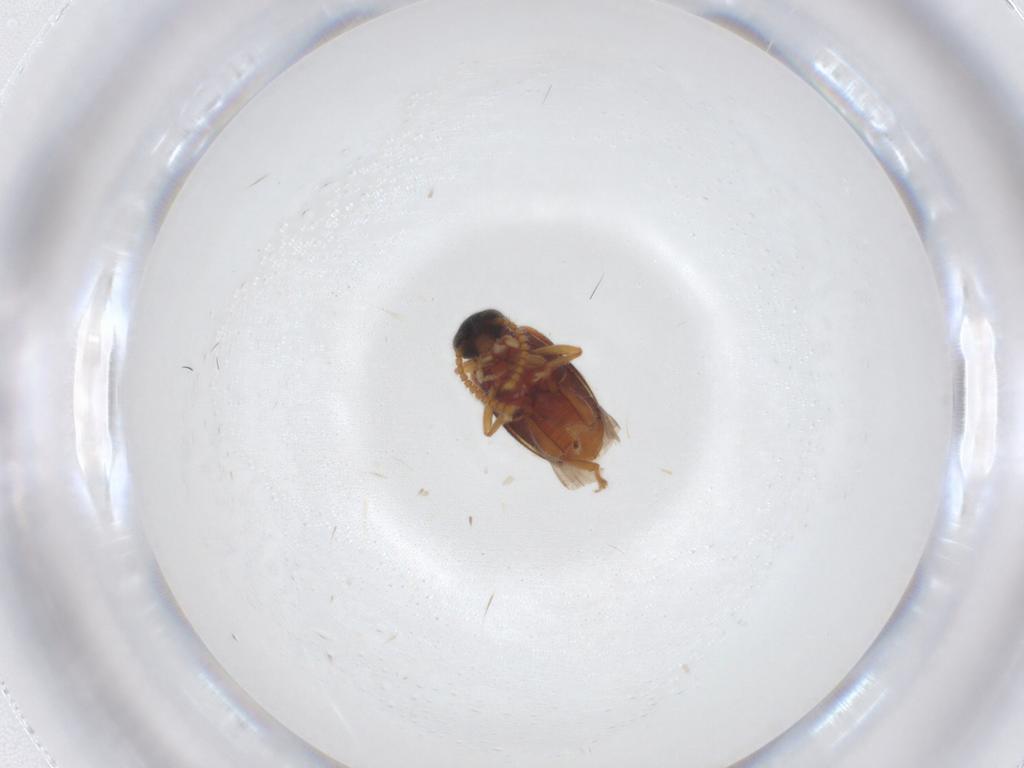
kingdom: Animalia
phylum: Arthropoda
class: Insecta
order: Coleoptera
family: Aderidae
